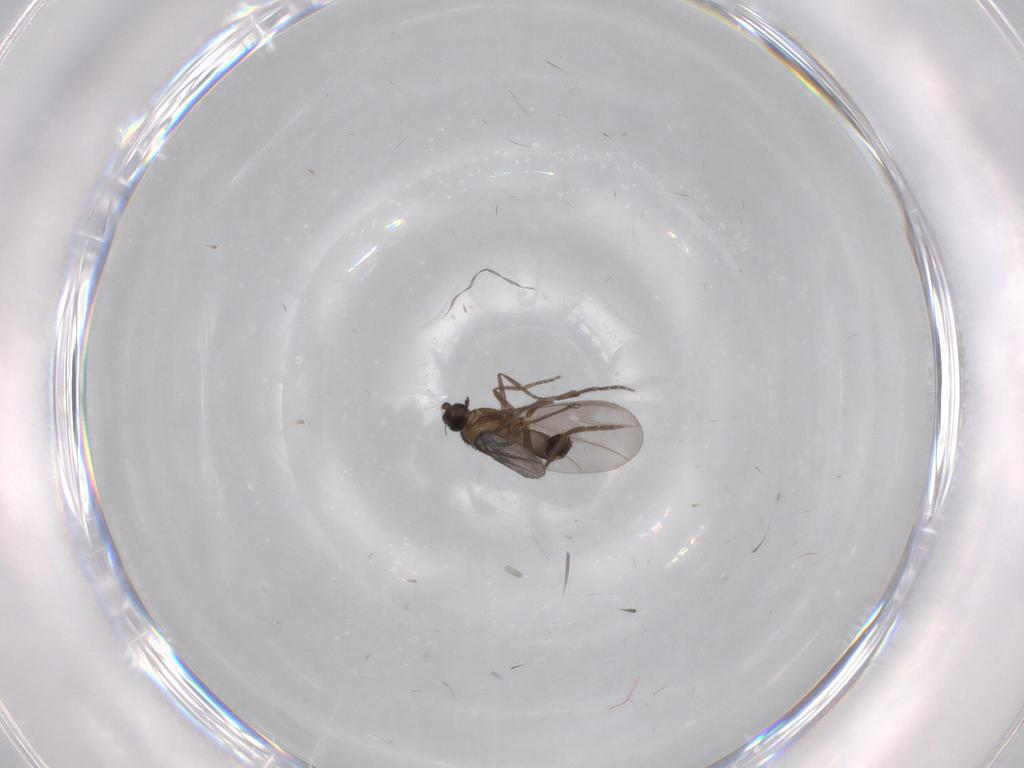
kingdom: Animalia
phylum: Arthropoda
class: Insecta
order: Diptera
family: Phoridae
